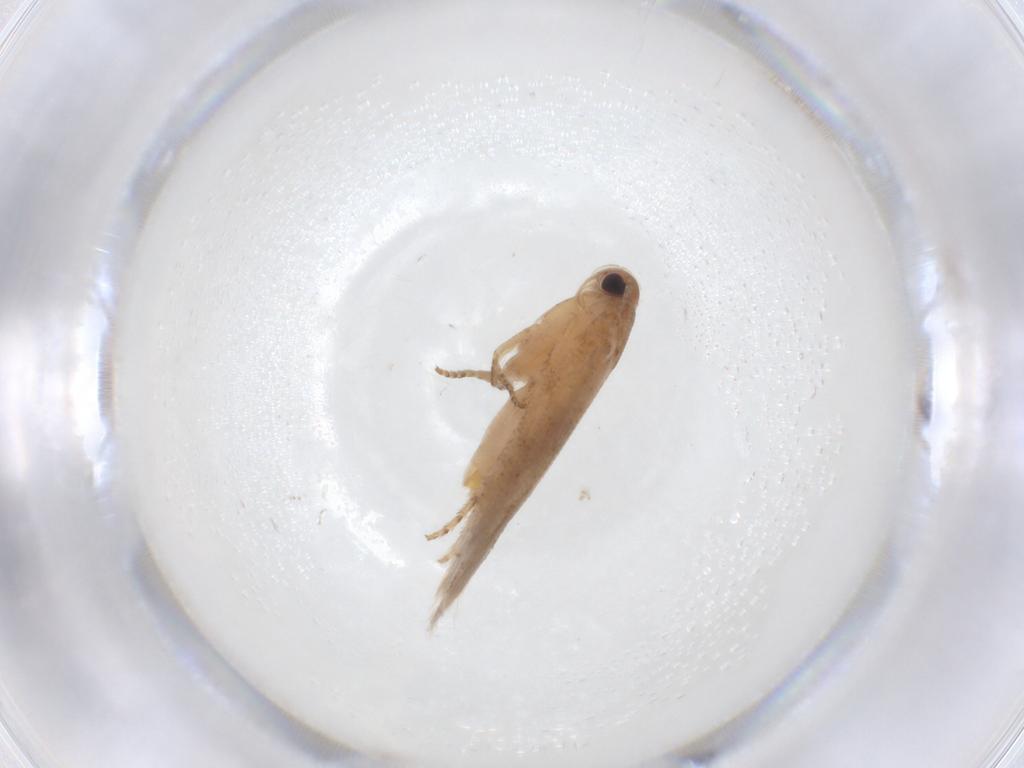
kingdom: Animalia
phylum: Arthropoda
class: Insecta
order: Lepidoptera
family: Gelechiidae
